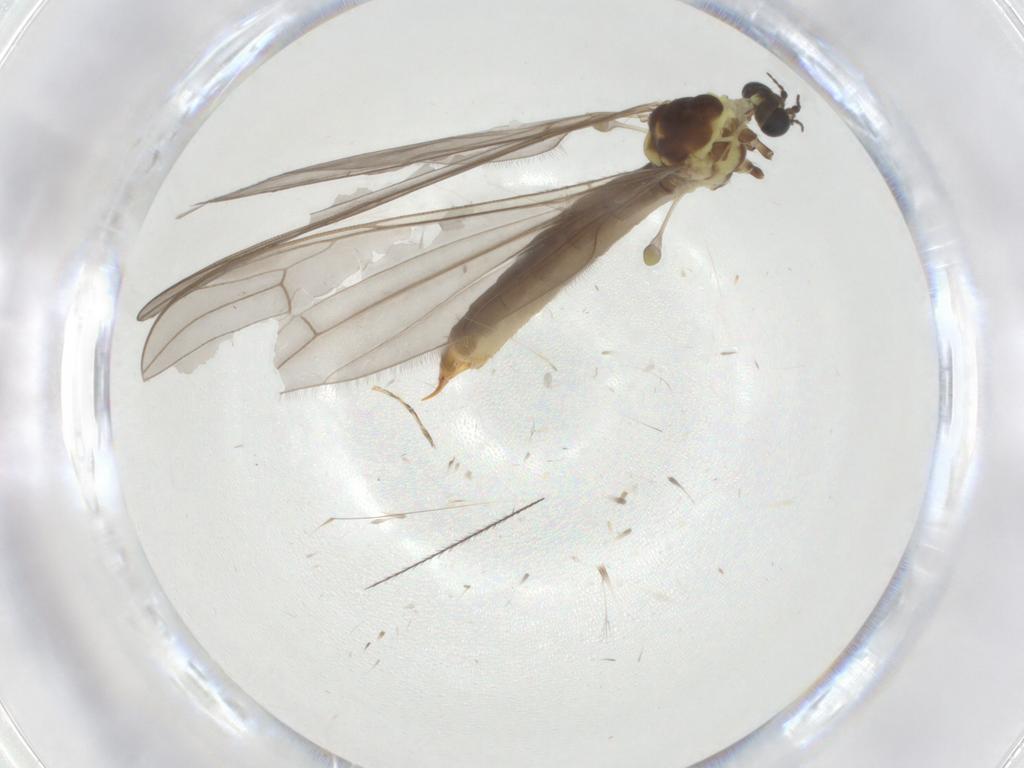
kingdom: Animalia
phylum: Arthropoda
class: Insecta
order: Diptera
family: Limoniidae
